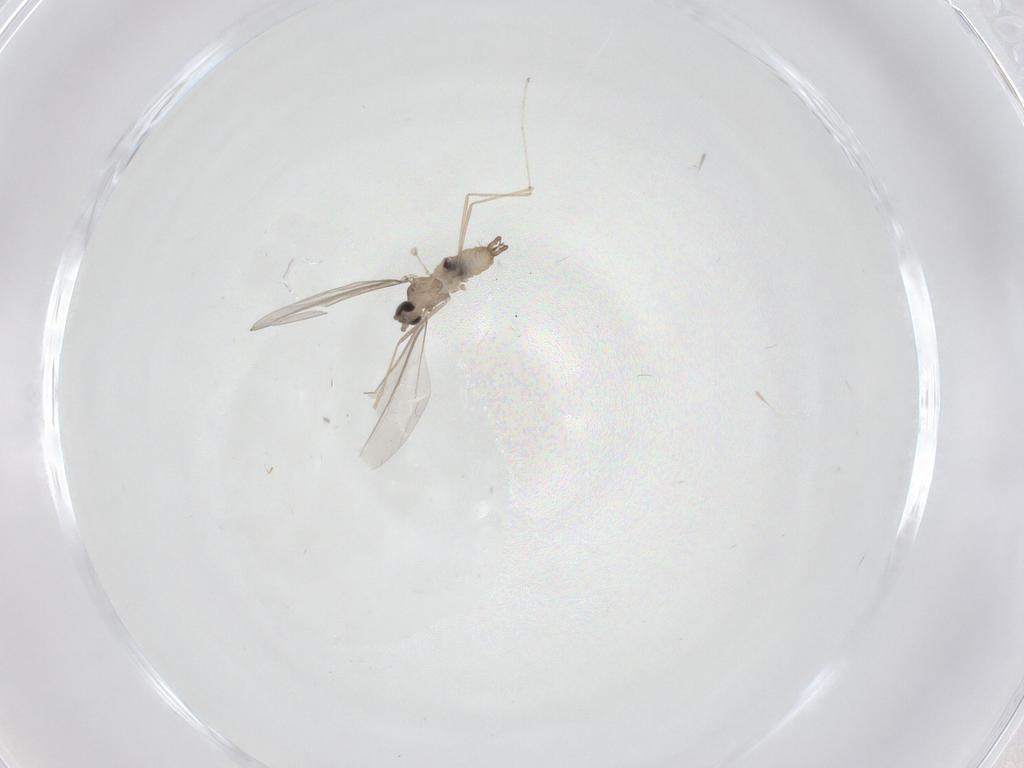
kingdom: Animalia
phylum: Arthropoda
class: Insecta
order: Diptera
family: Cecidomyiidae
